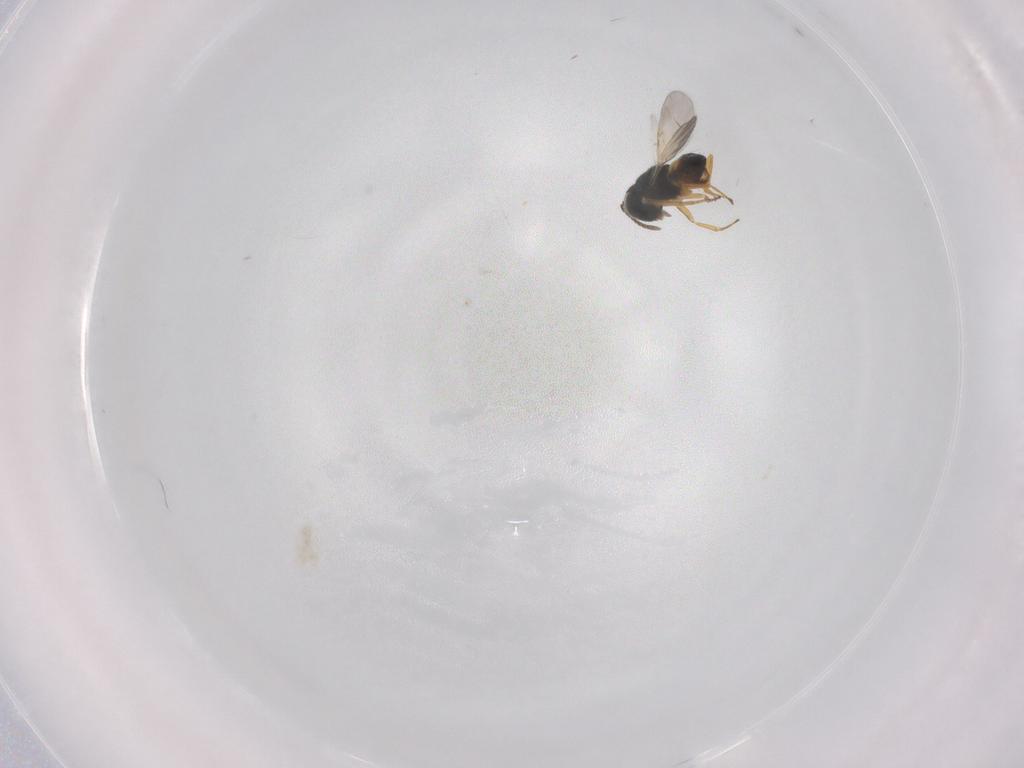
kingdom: Animalia
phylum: Arthropoda
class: Insecta
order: Hymenoptera
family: Encyrtidae
